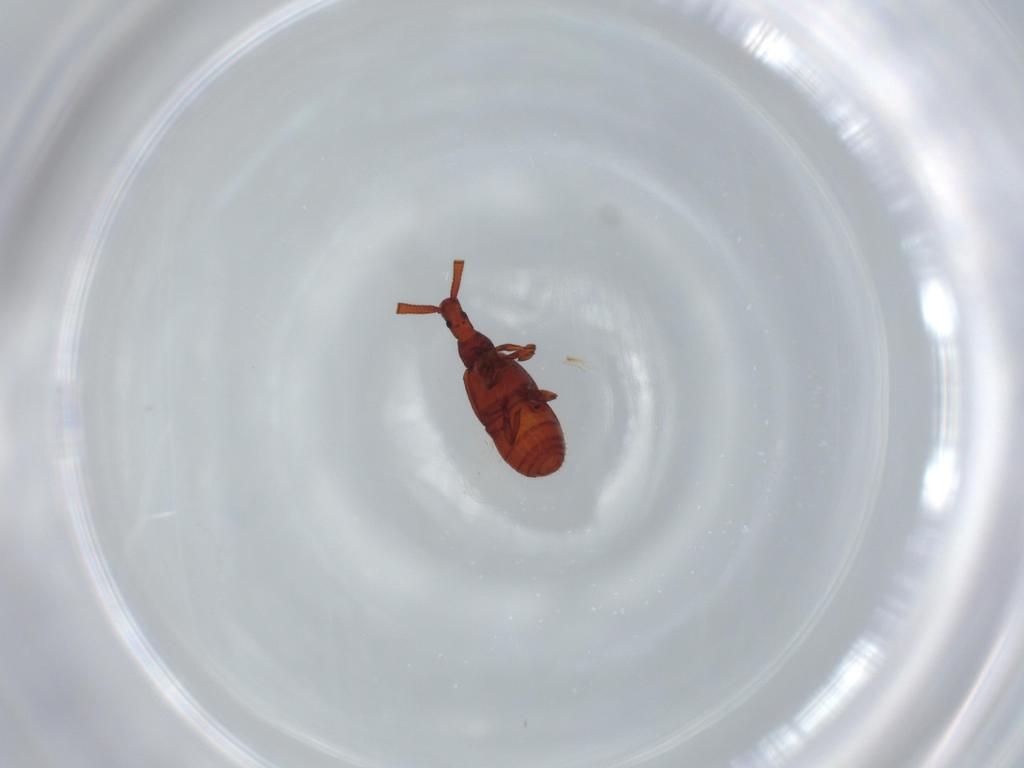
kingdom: Animalia
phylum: Arthropoda
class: Insecta
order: Coleoptera
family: Staphylinidae
